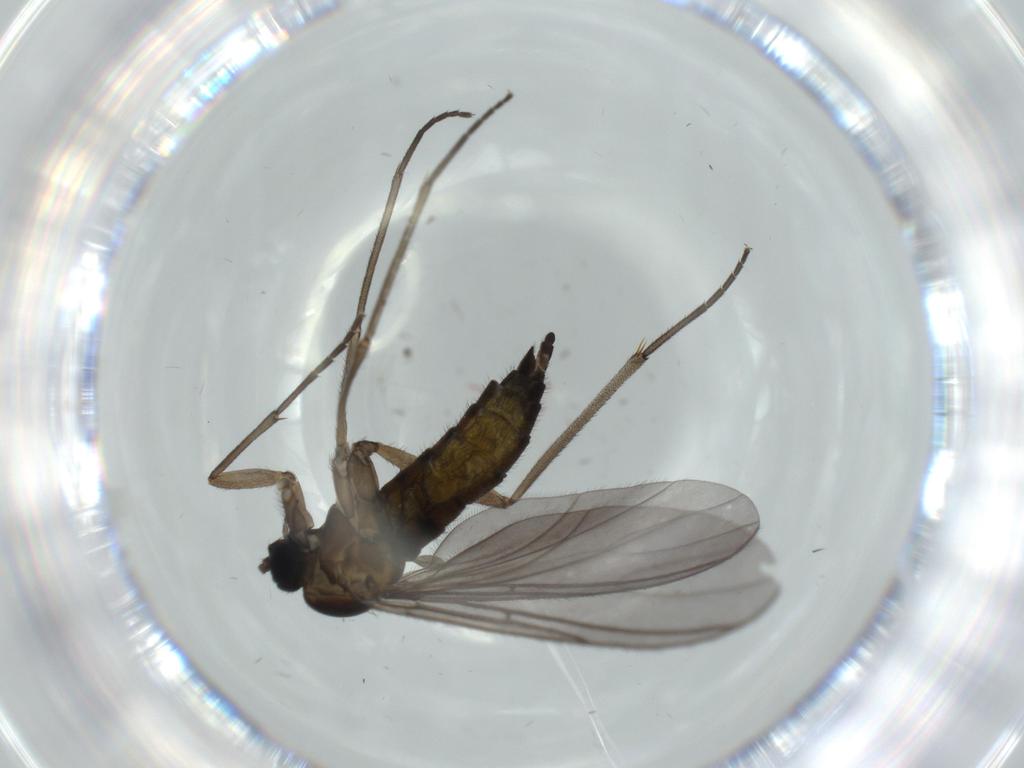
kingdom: Animalia
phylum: Arthropoda
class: Insecta
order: Diptera
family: Sciaridae
